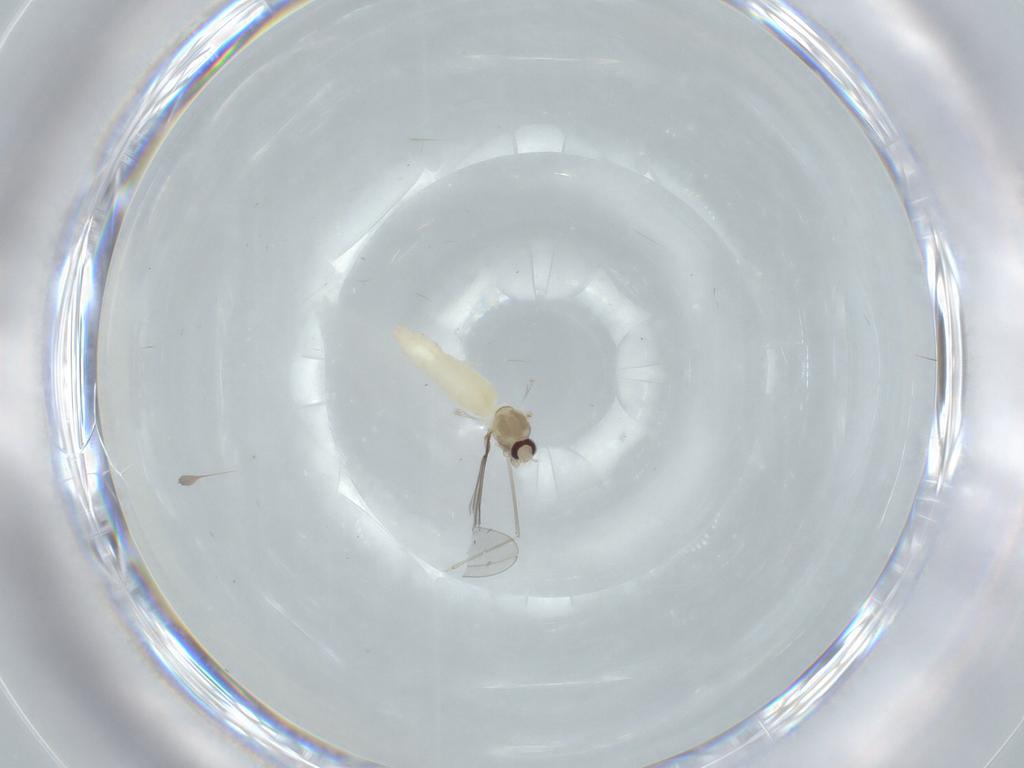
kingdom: Animalia
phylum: Arthropoda
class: Insecta
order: Diptera
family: Cecidomyiidae
